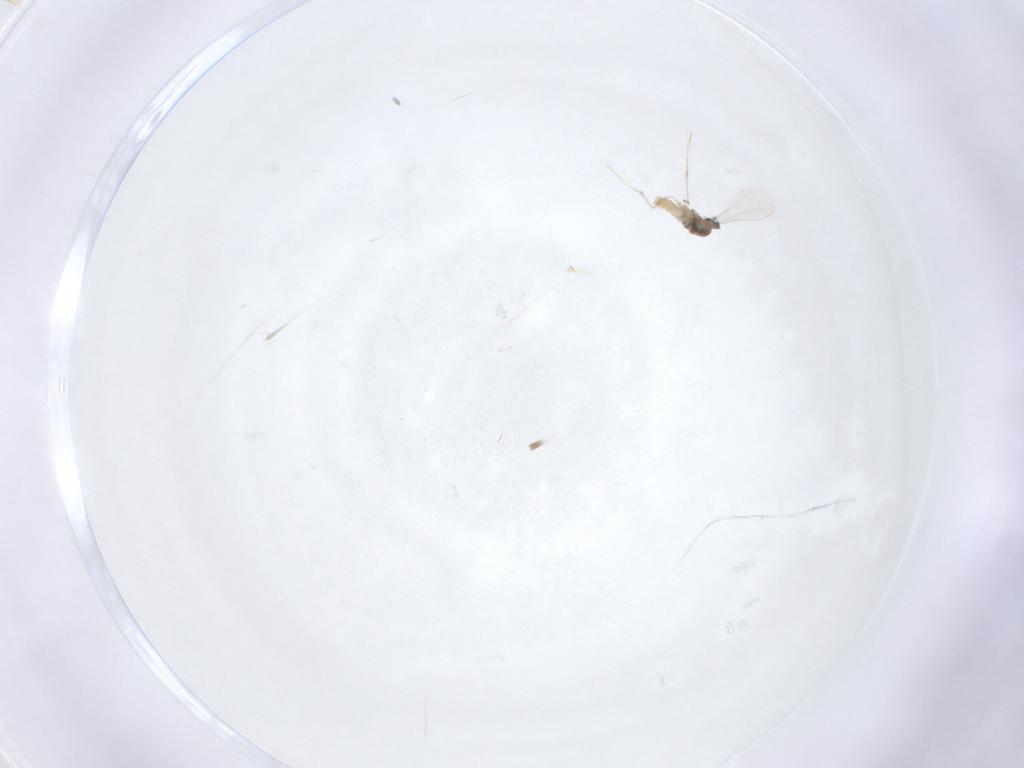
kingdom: Animalia
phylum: Arthropoda
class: Insecta
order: Diptera
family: Cecidomyiidae
